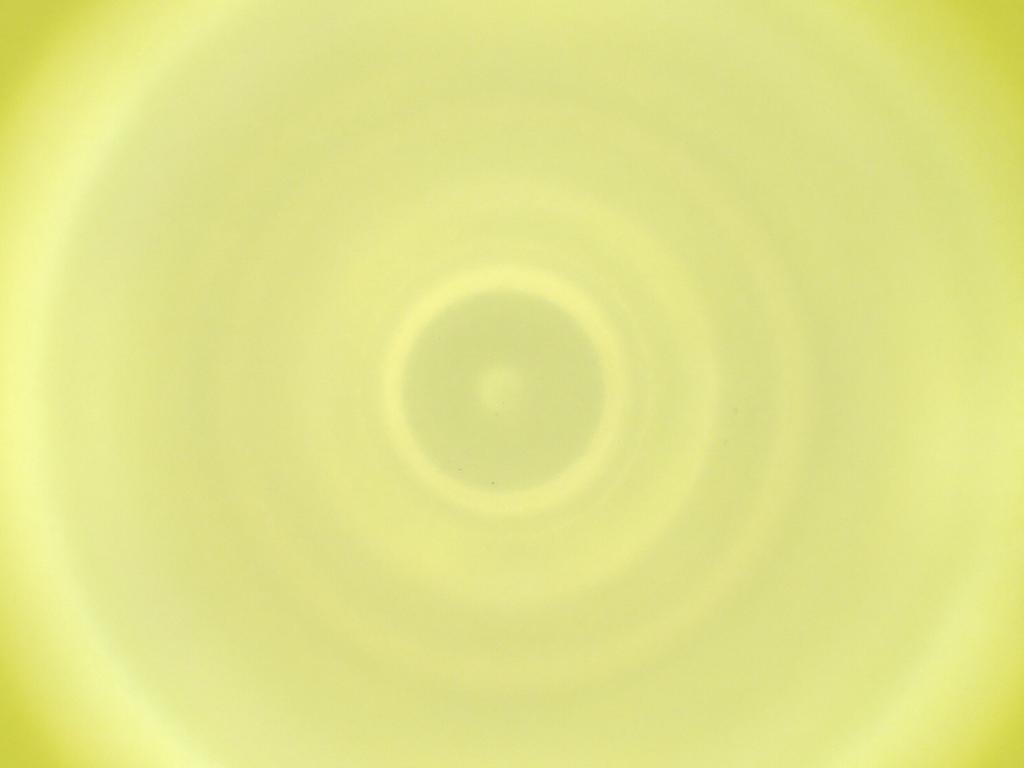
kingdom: Animalia
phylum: Arthropoda
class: Insecta
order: Diptera
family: Cecidomyiidae
